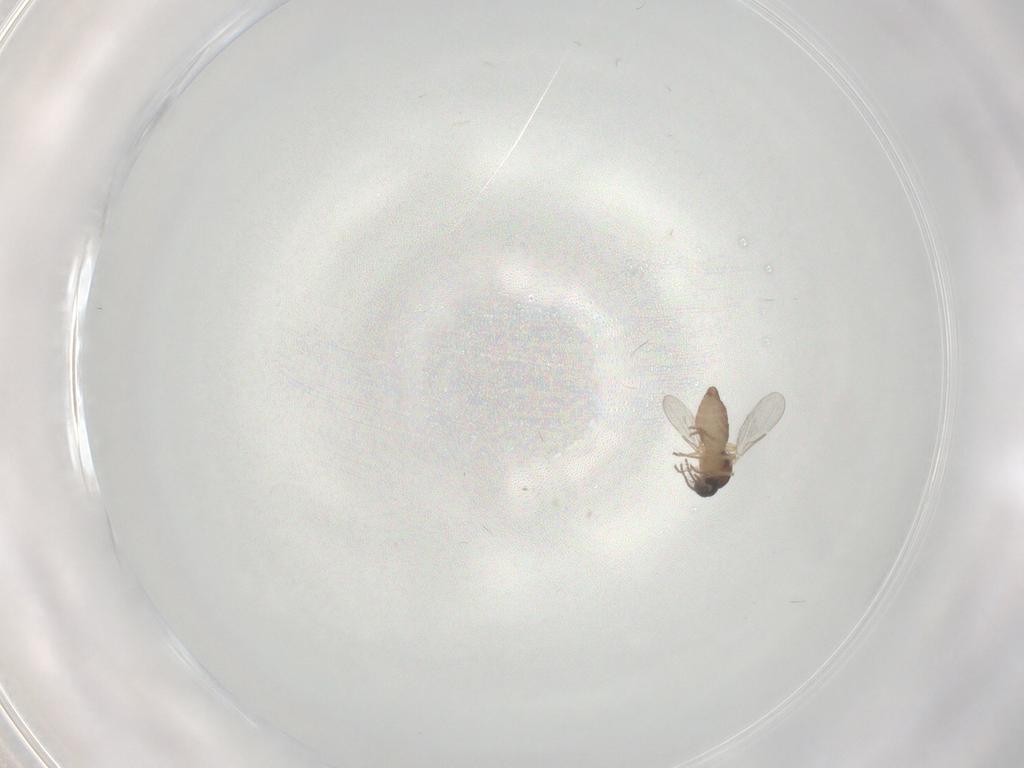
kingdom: Animalia
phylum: Arthropoda
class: Insecta
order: Diptera
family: Ceratopogonidae
